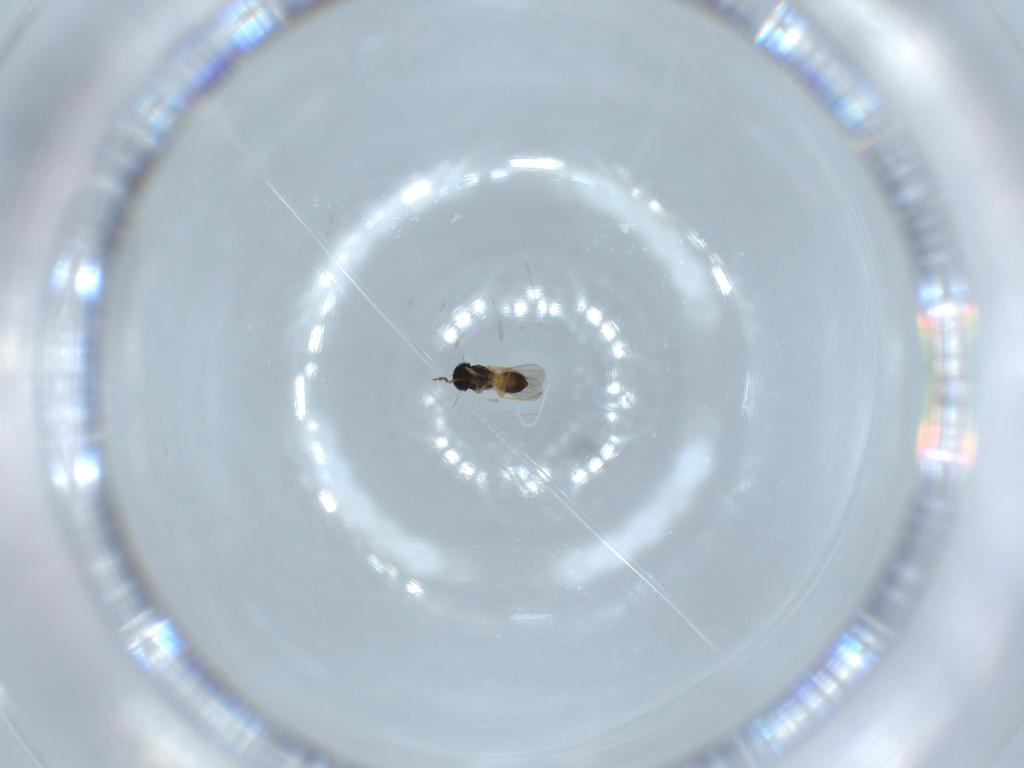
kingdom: Animalia
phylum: Arthropoda
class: Insecta
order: Hymenoptera
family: Scelionidae
